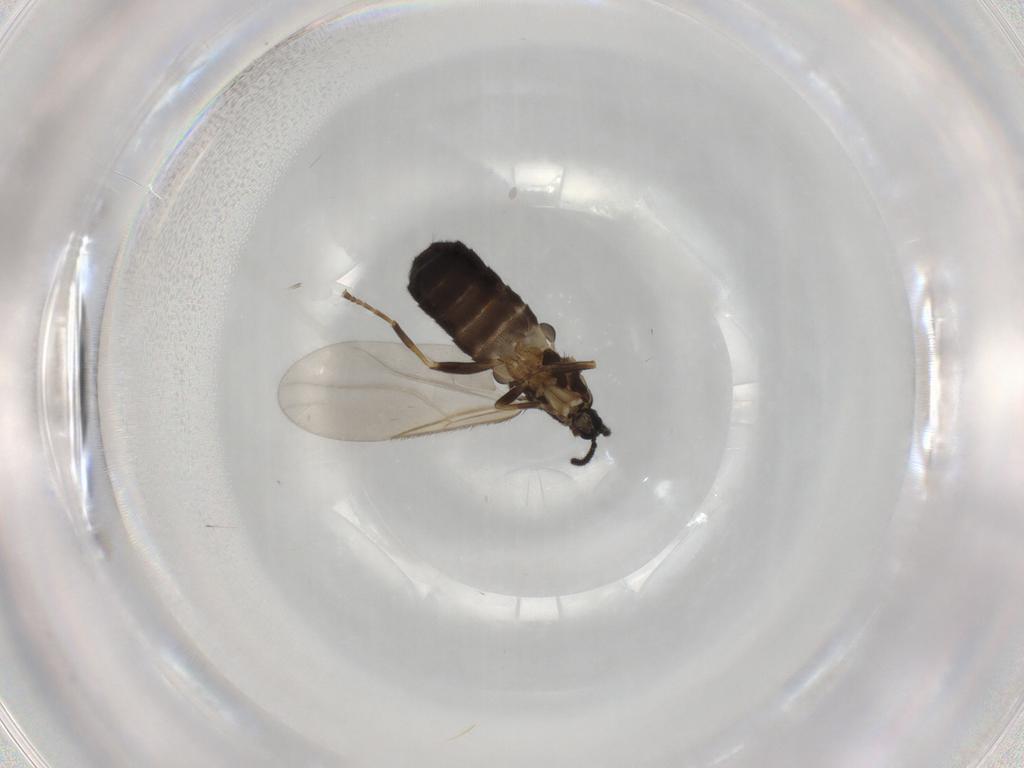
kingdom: Animalia
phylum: Arthropoda
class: Insecta
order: Diptera
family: Scatopsidae
